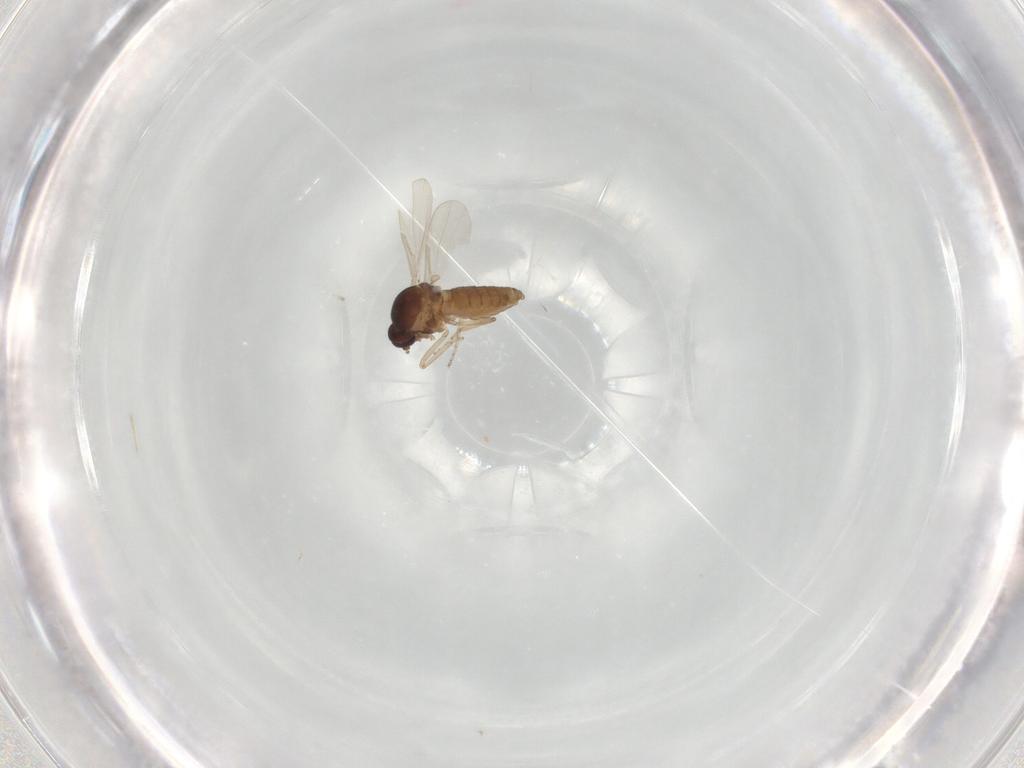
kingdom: Animalia
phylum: Arthropoda
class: Insecta
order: Diptera
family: Ceratopogonidae
